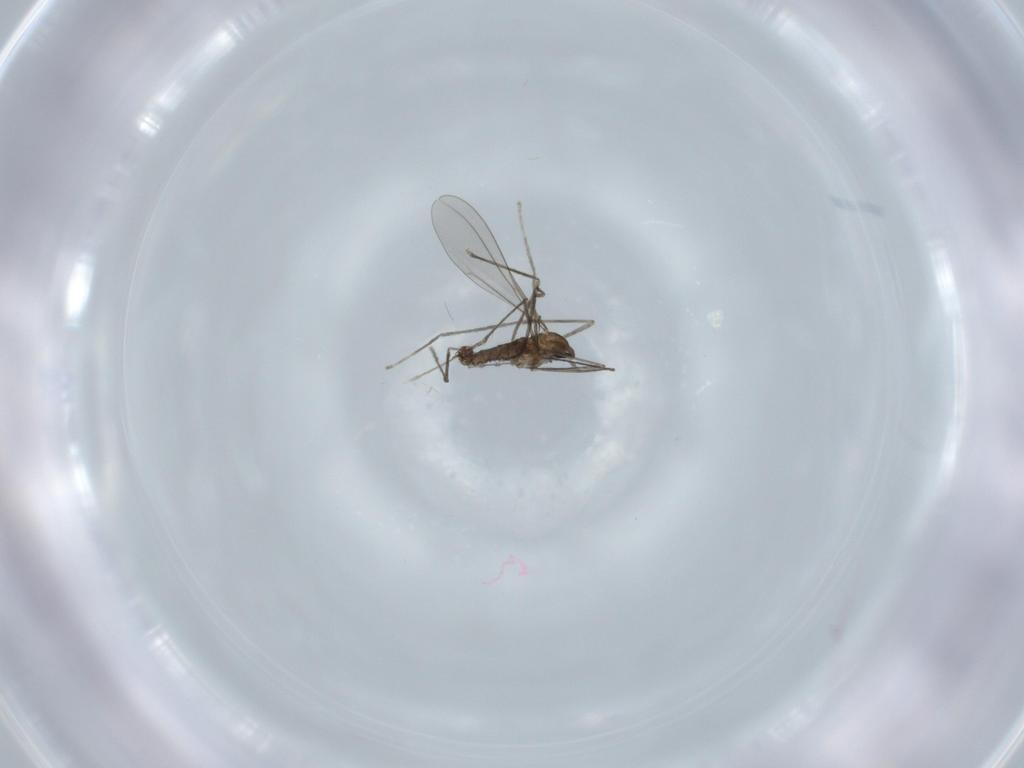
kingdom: Animalia
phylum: Arthropoda
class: Insecta
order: Diptera
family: Cecidomyiidae
